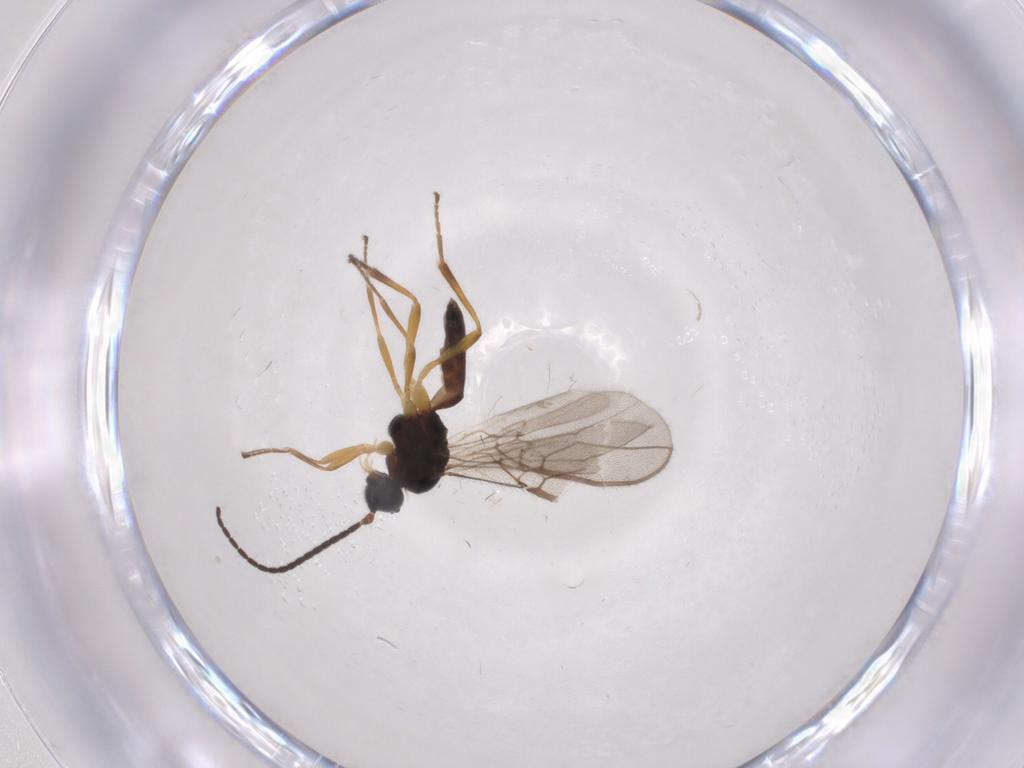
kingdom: Animalia
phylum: Arthropoda
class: Insecta
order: Hymenoptera
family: Braconidae
